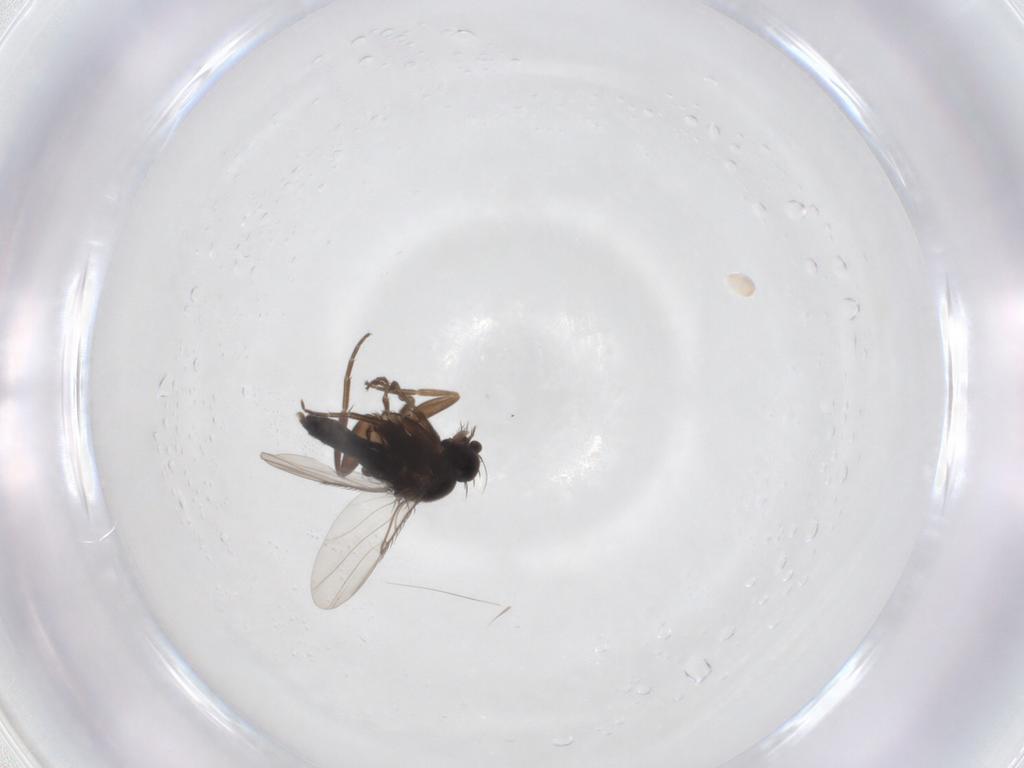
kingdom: Animalia
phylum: Arthropoda
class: Insecta
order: Diptera
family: Phoridae
